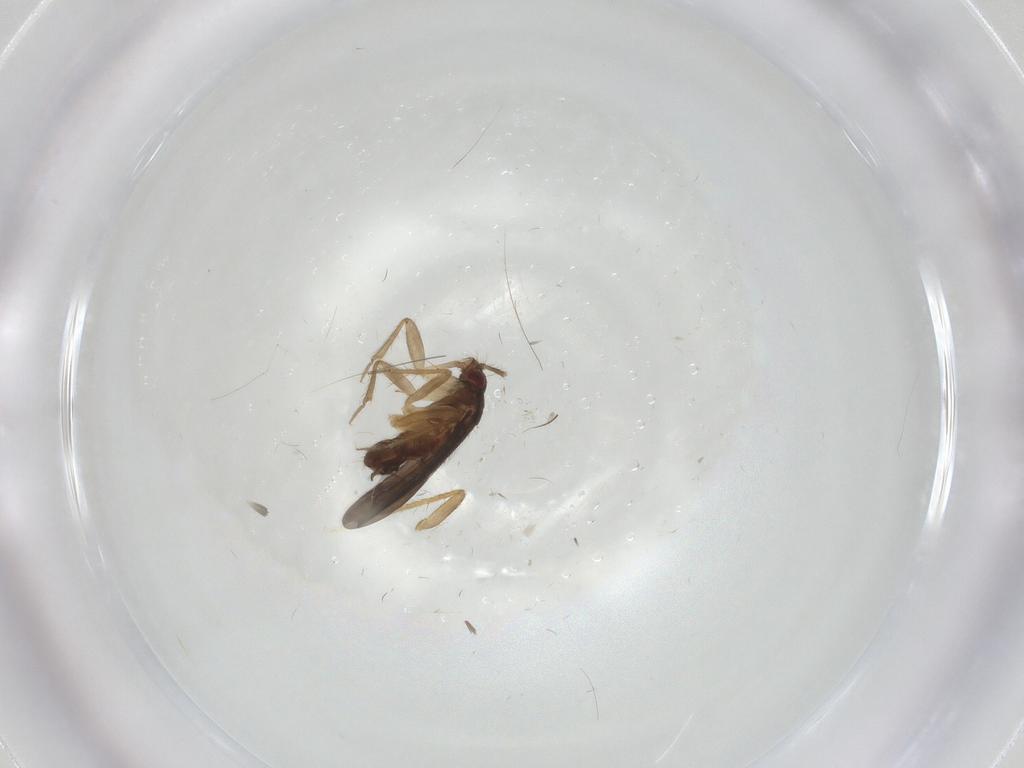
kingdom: Animalia
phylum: Arthropoda
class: Insecta
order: Hemiptera
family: Ceratocombidae
